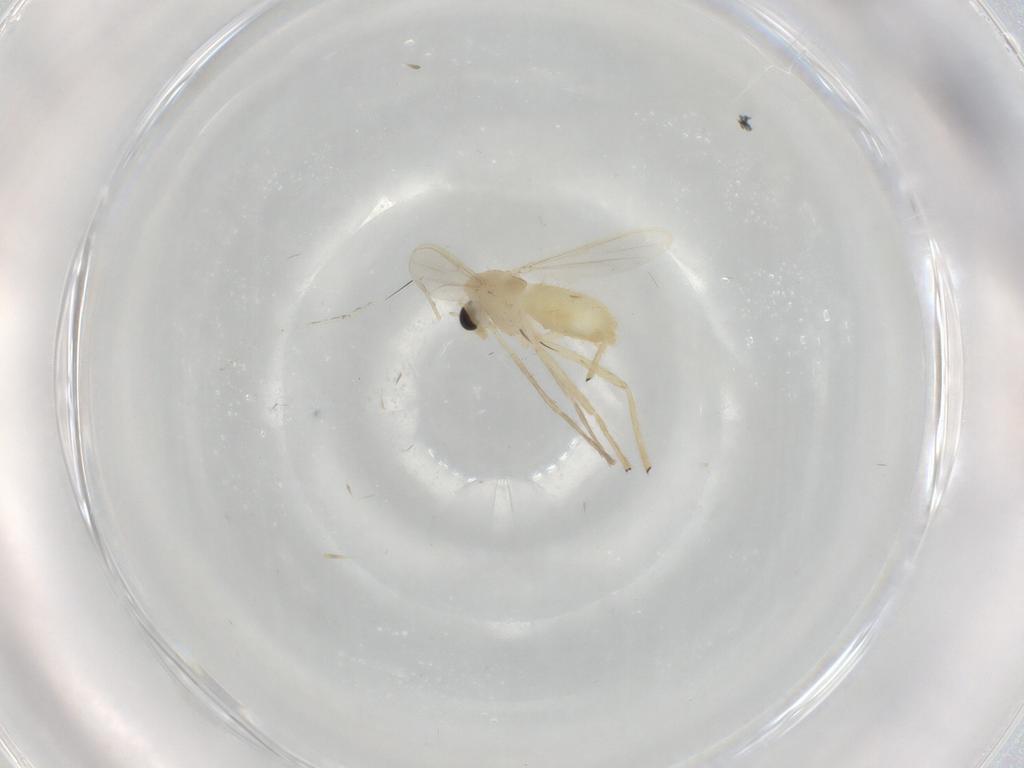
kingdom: Animalia
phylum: Arthropoda
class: Insecta
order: Diptera
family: Chironomidae
